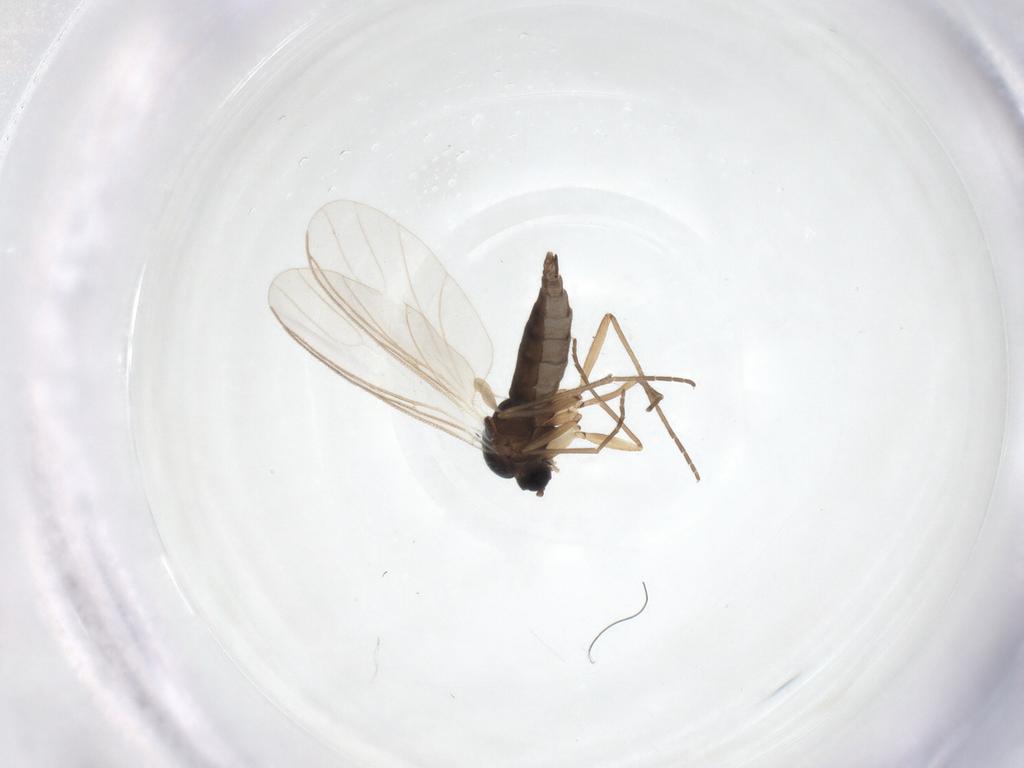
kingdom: Animalia
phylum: Arthropoda
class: Insecta
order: Diptera
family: Sciaridae
